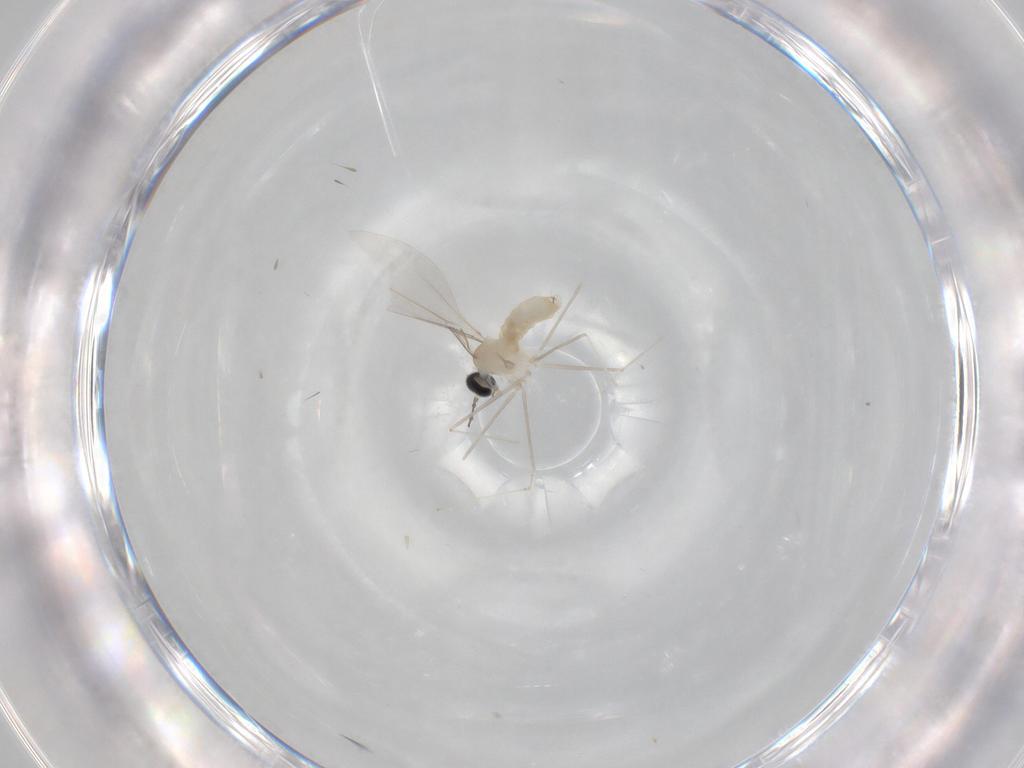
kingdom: Animalia
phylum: Arthropoda
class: Insecta
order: Diptera
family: Cecidomyiidae
